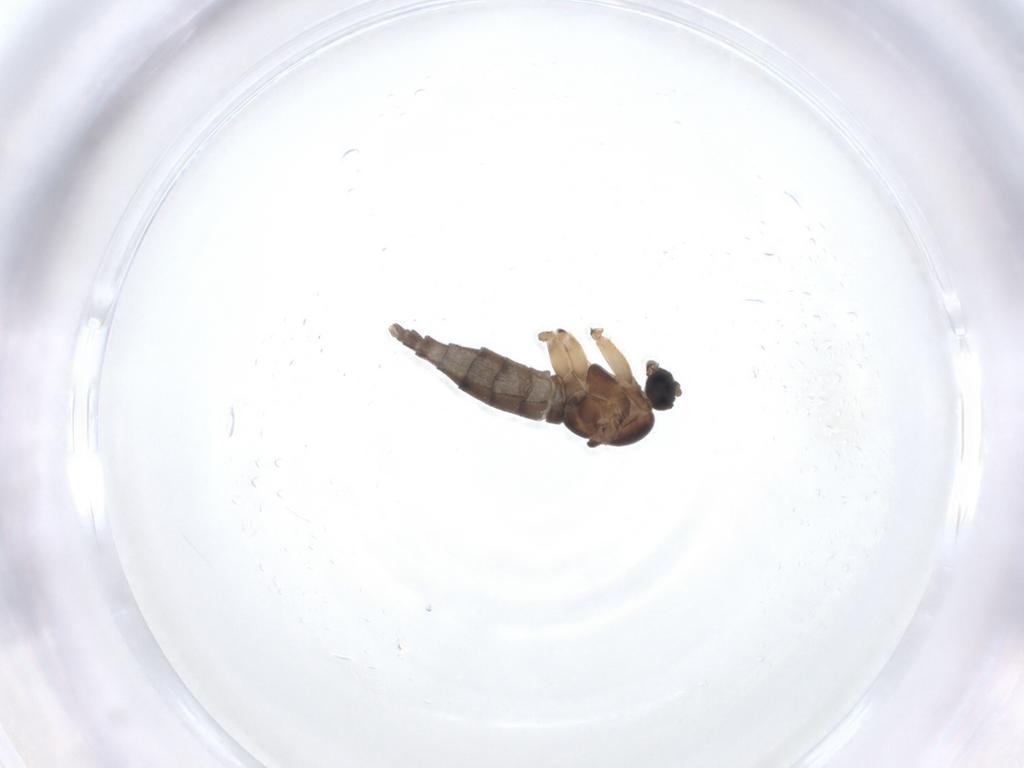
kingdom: Animalia
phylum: Arthropoda
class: Insecta
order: Diptera
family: Sciaridae
